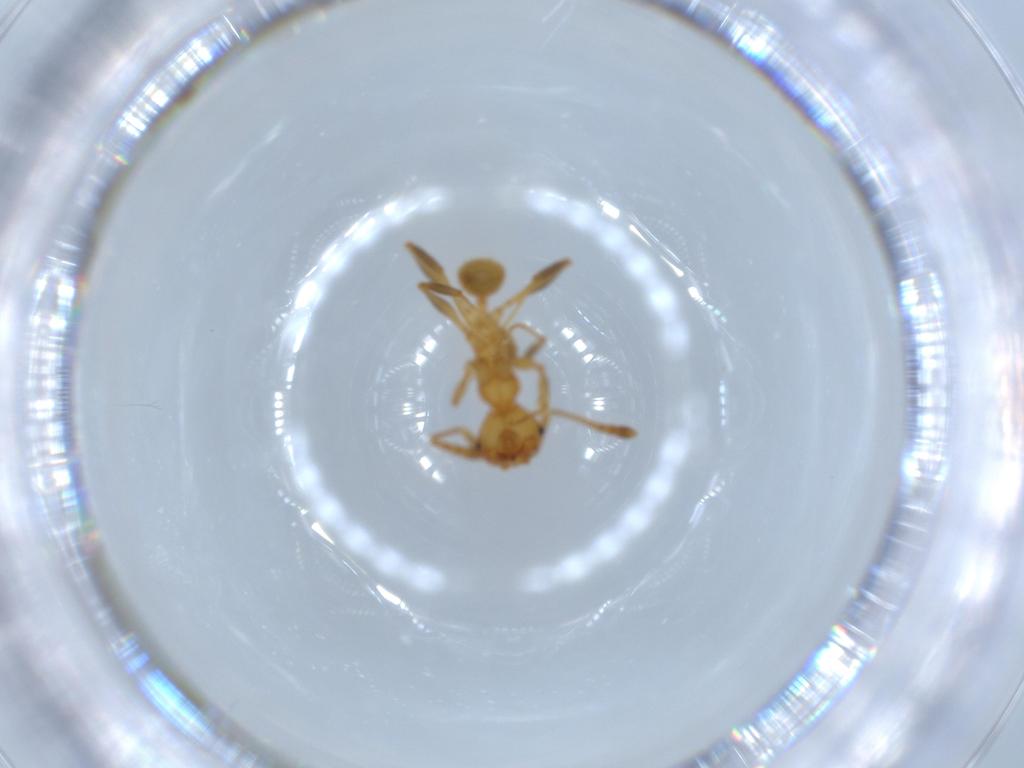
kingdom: Animalia
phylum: Arthropoda
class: Insecta
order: Hymenoptera
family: Formicidae
